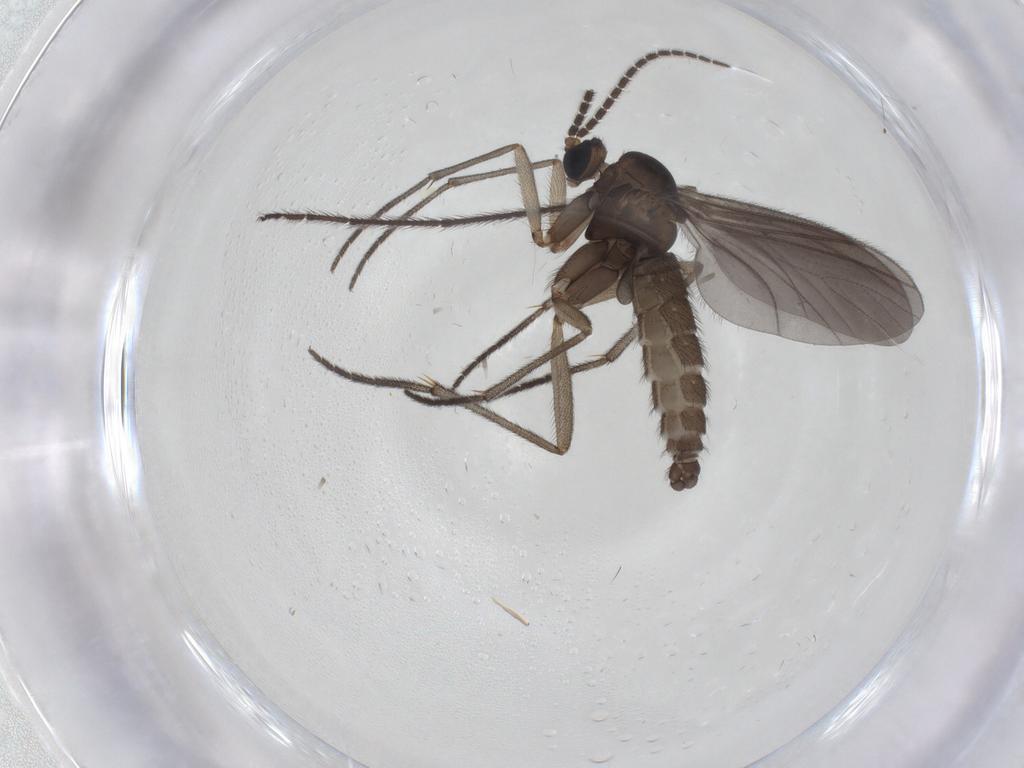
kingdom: Animalia
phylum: Arthropoda
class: Insecta
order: Diptera
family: Sciaridae
